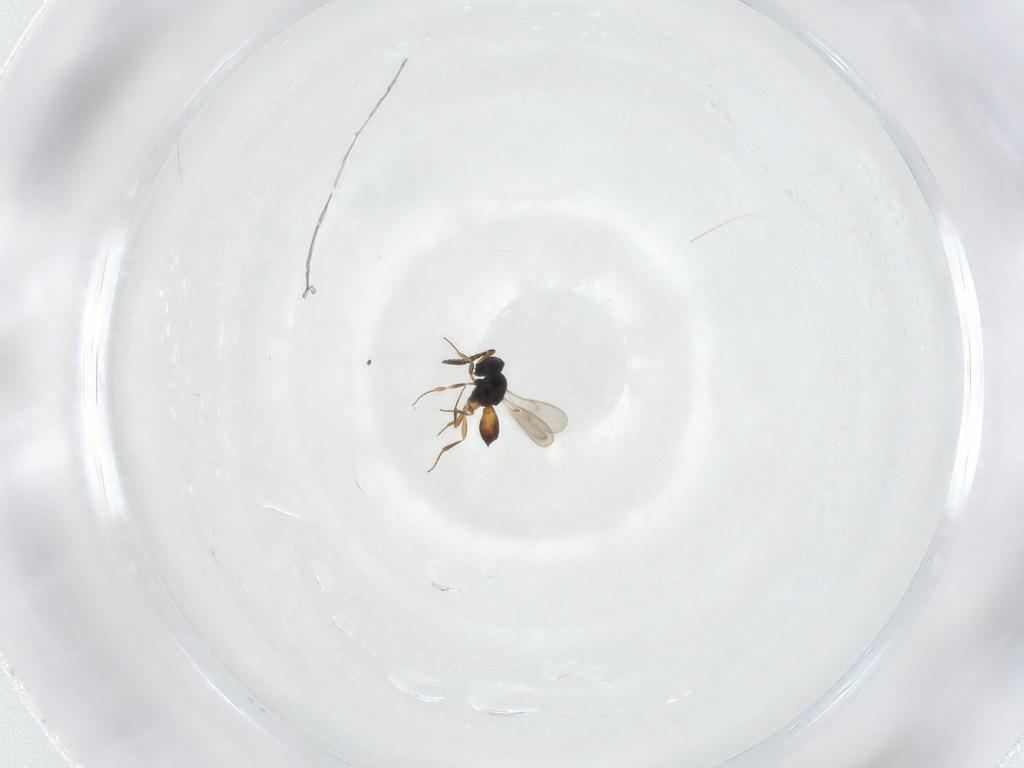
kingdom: Animalia
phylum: Arthropoda
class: Insecta
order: Hymenoptera
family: Scelionidae
